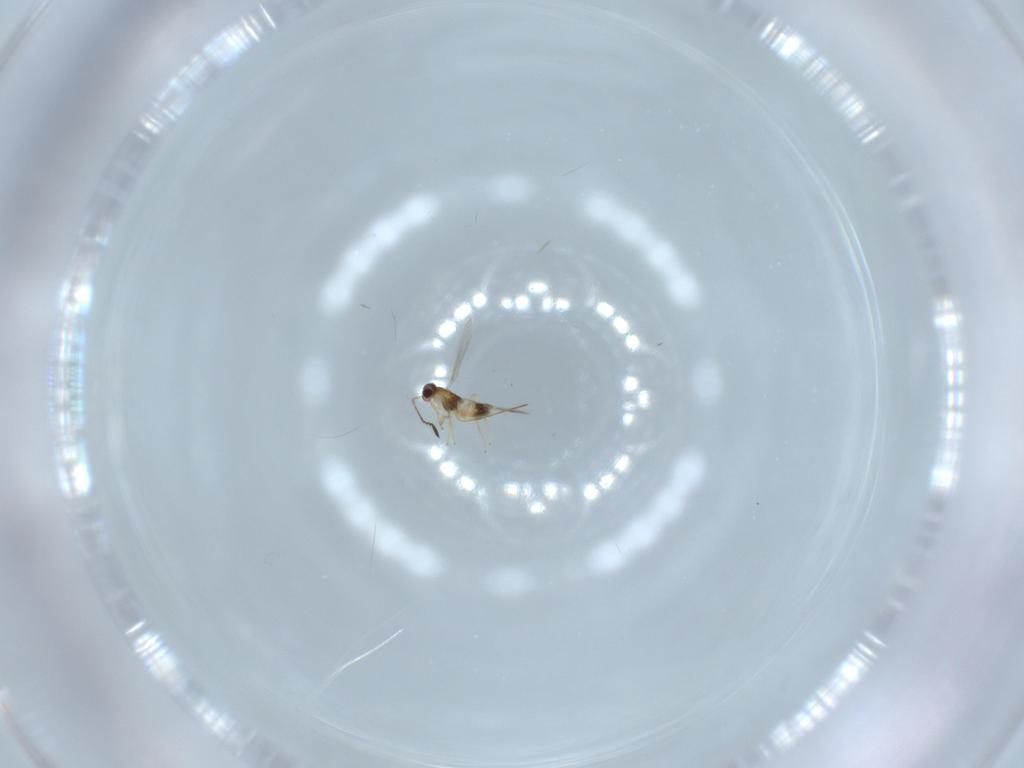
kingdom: Animalia
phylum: Arthropoda
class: Insecta
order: Hymenoptera
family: Mymaridae
